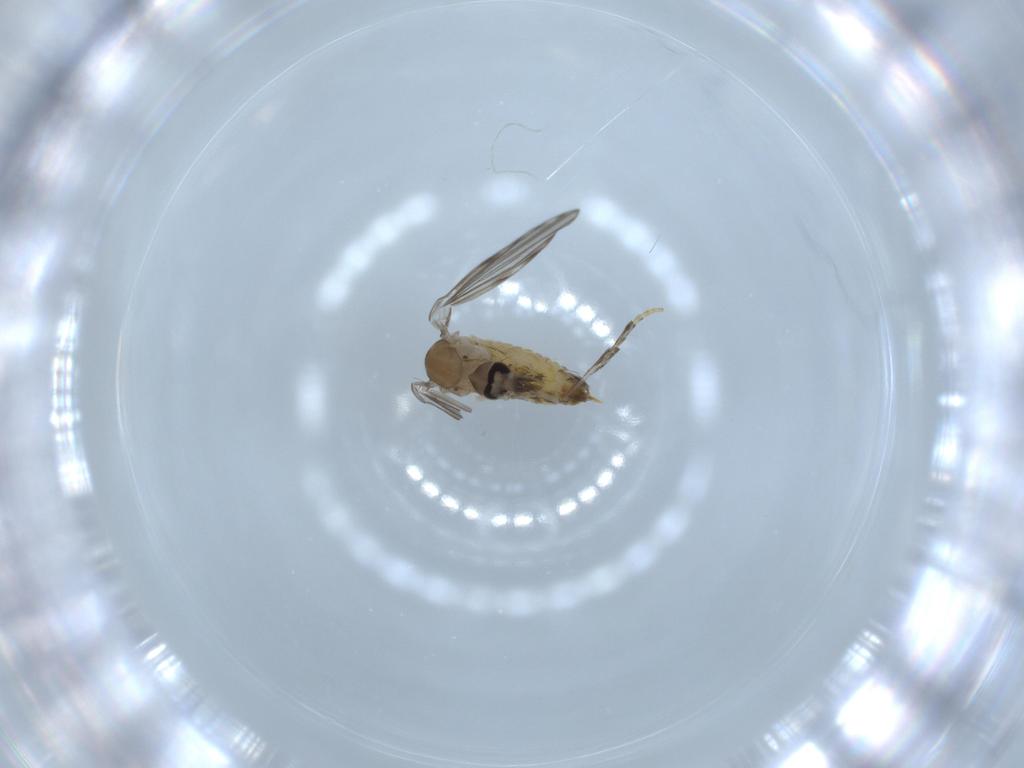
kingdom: Animalia
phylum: Arthropoda
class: Insecta
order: Diptera
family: Psychodidae
